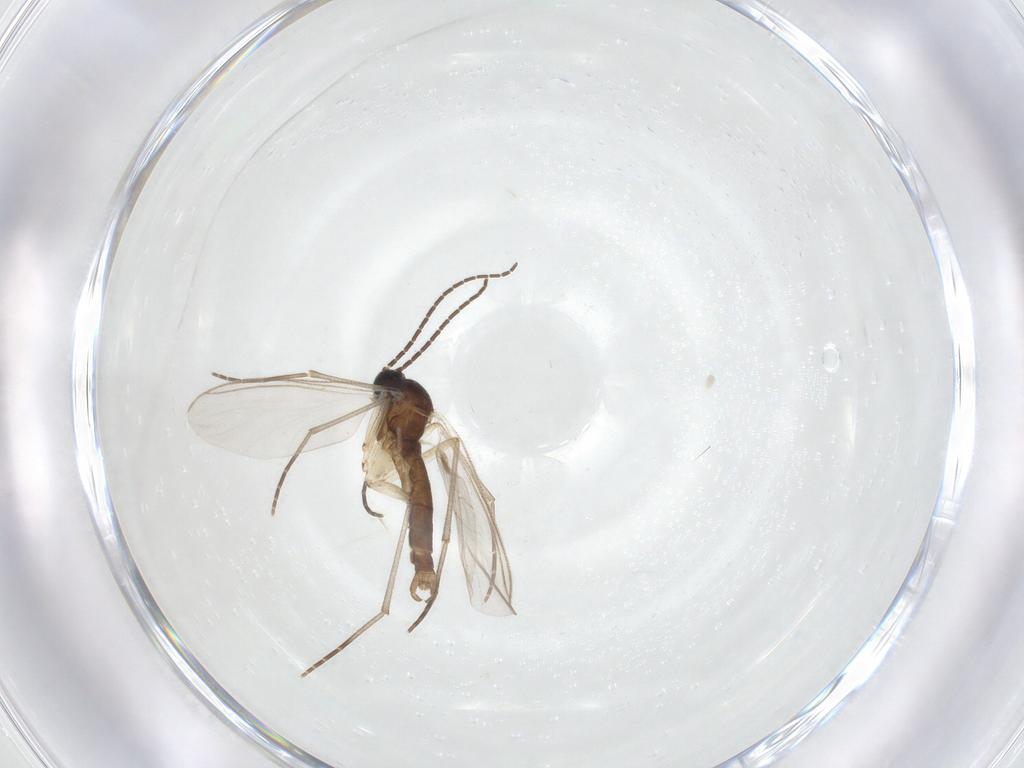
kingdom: Animalia
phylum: Arthropoda
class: Insecta
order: Diptera
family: Sciaridae
